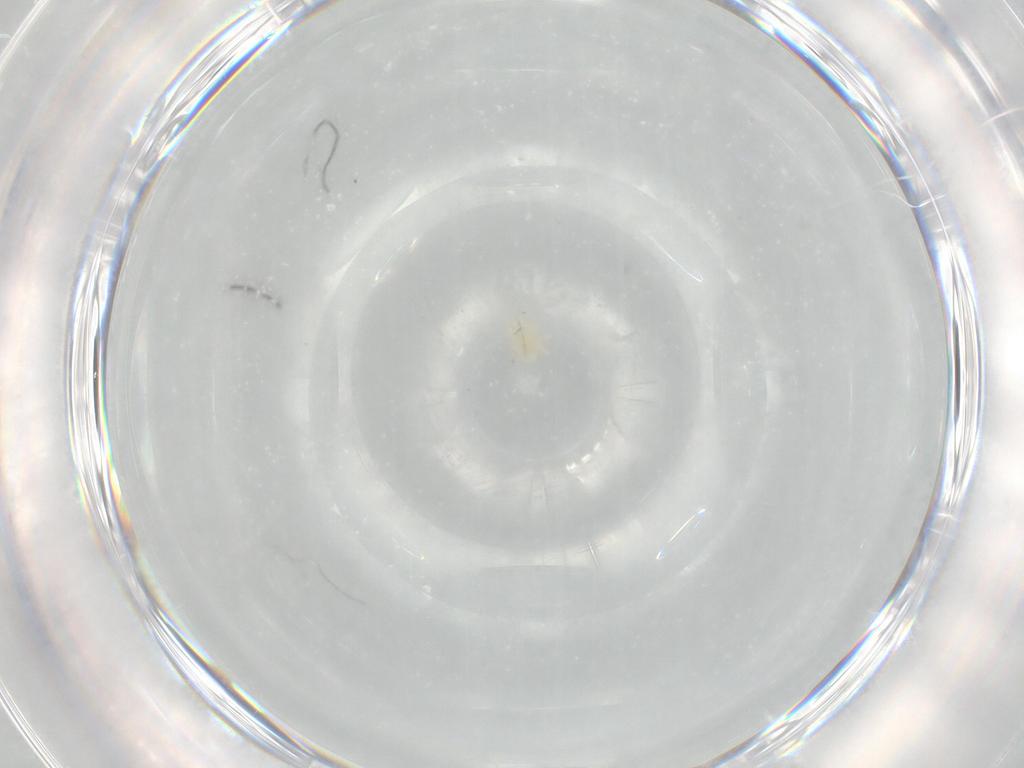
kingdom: Animalia
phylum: Arthropoda
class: Arachnida
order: Trombidiformes
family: Tetranychidae
